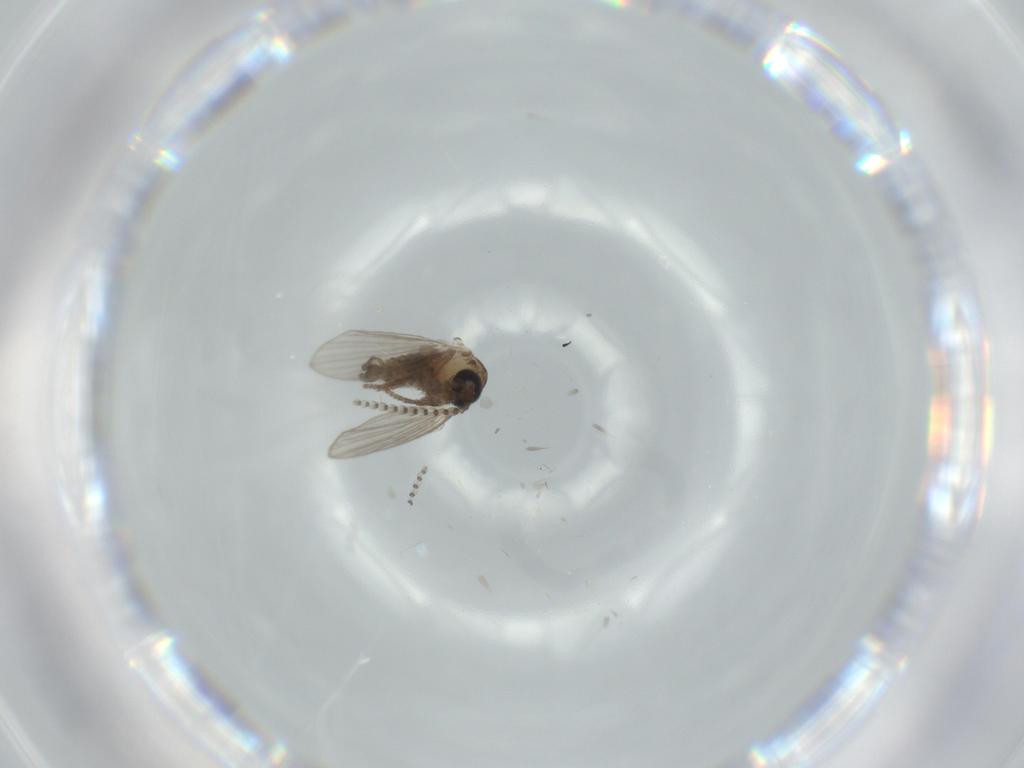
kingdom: Animalia
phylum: Arthropoda
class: Insecta
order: Diptera
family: Psychodidae
